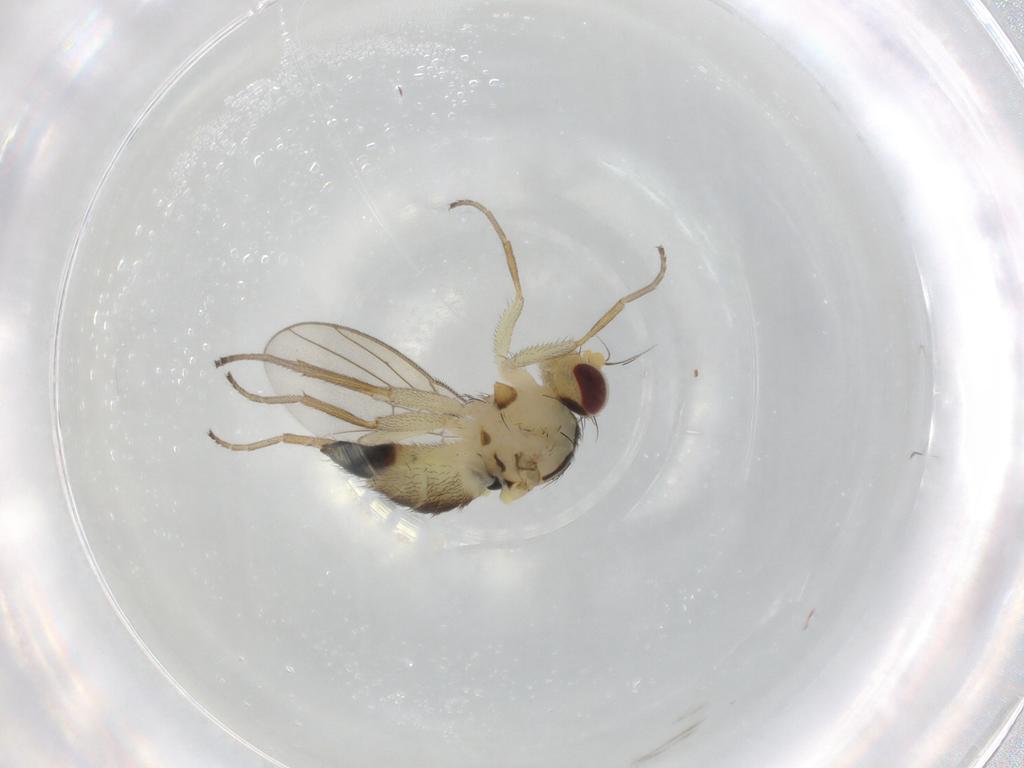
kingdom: Animalia
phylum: Arthropoda
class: Insecta
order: Diptera
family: Agromyzidae
